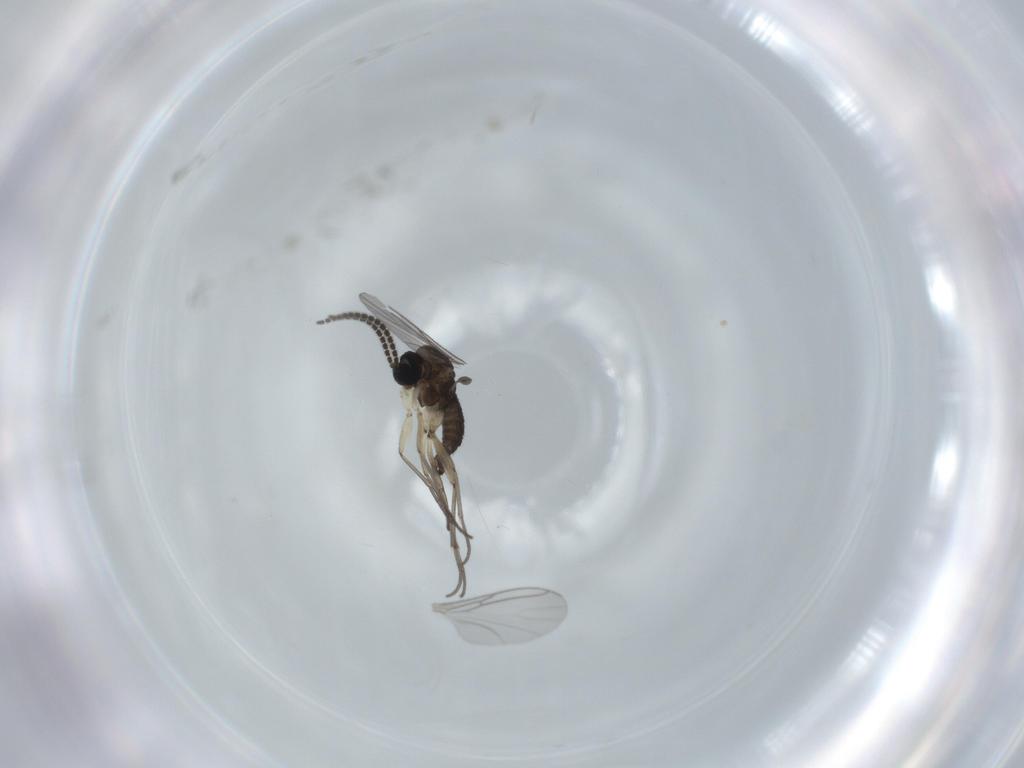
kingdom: Animalia
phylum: Arthropoda
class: Insecta
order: Diptera
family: Sciaridae
